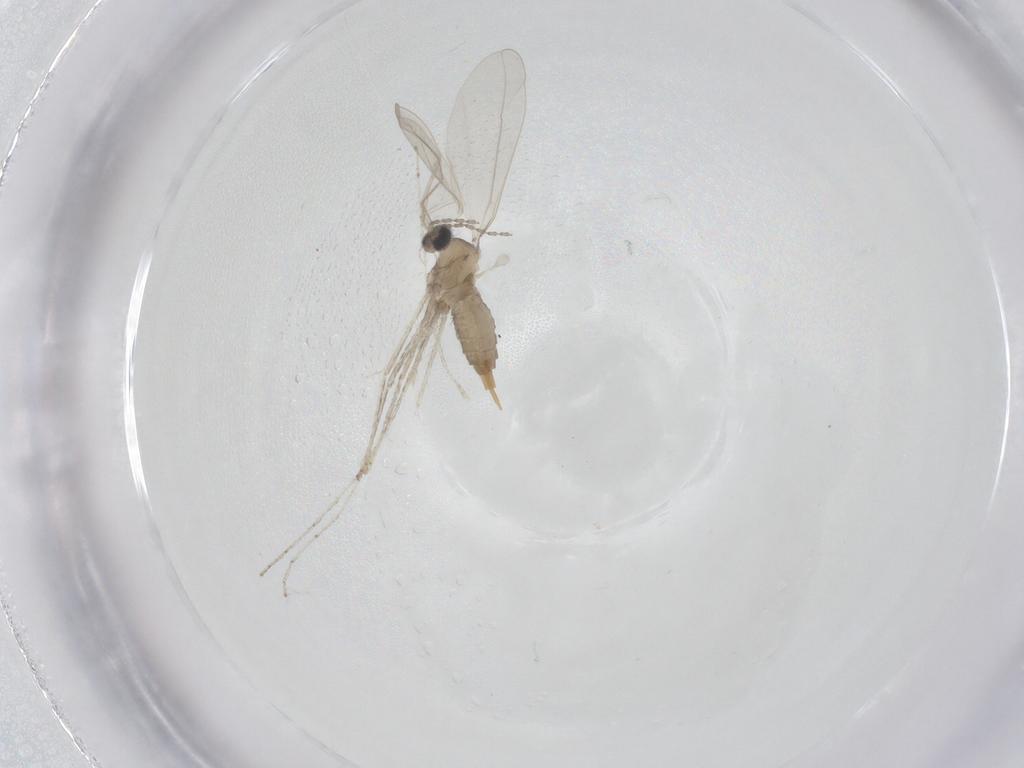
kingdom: Animalia
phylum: Arthropoda
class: Insecta
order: Diptera
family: Cecidomyiidae
